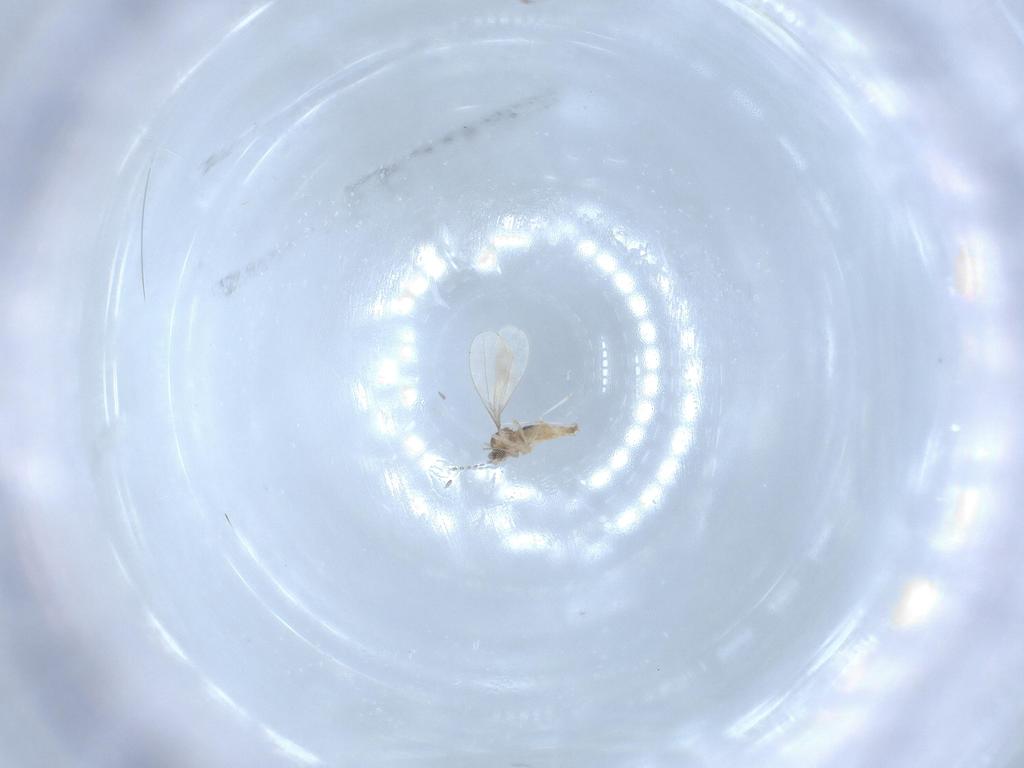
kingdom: Animalia
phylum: Arthropoda
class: Insecta
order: Diptera
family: Cecidomyiidae
